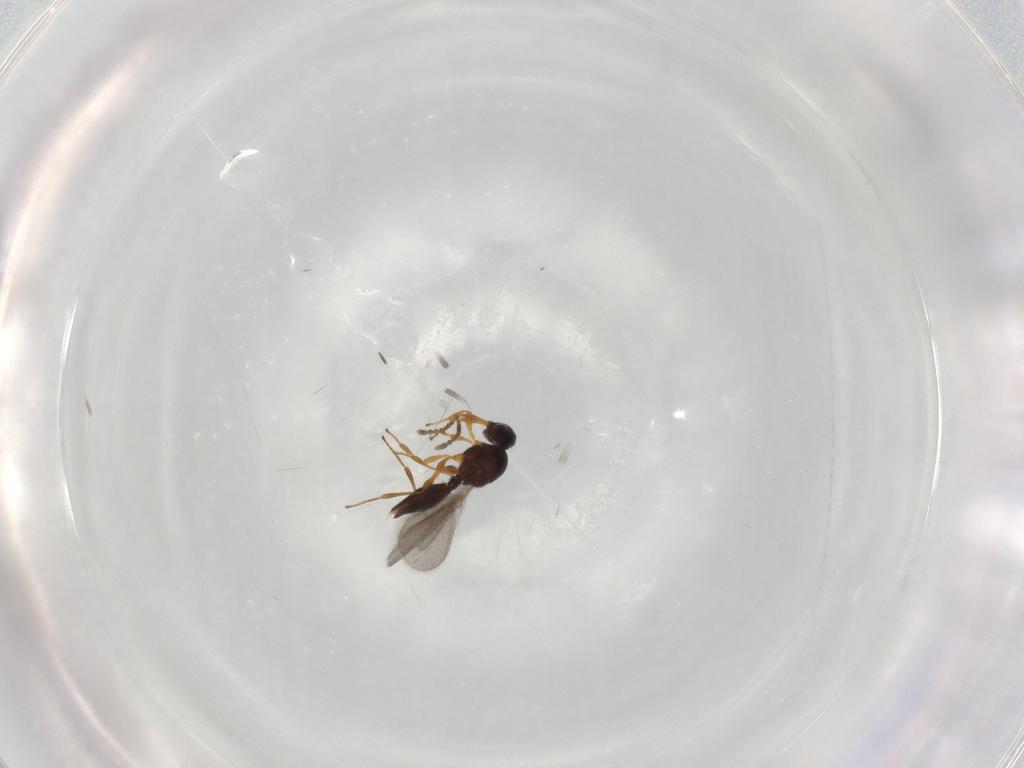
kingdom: Animalia
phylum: Arthropoda
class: Insecta
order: Hymenoptera
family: Platygastridae
